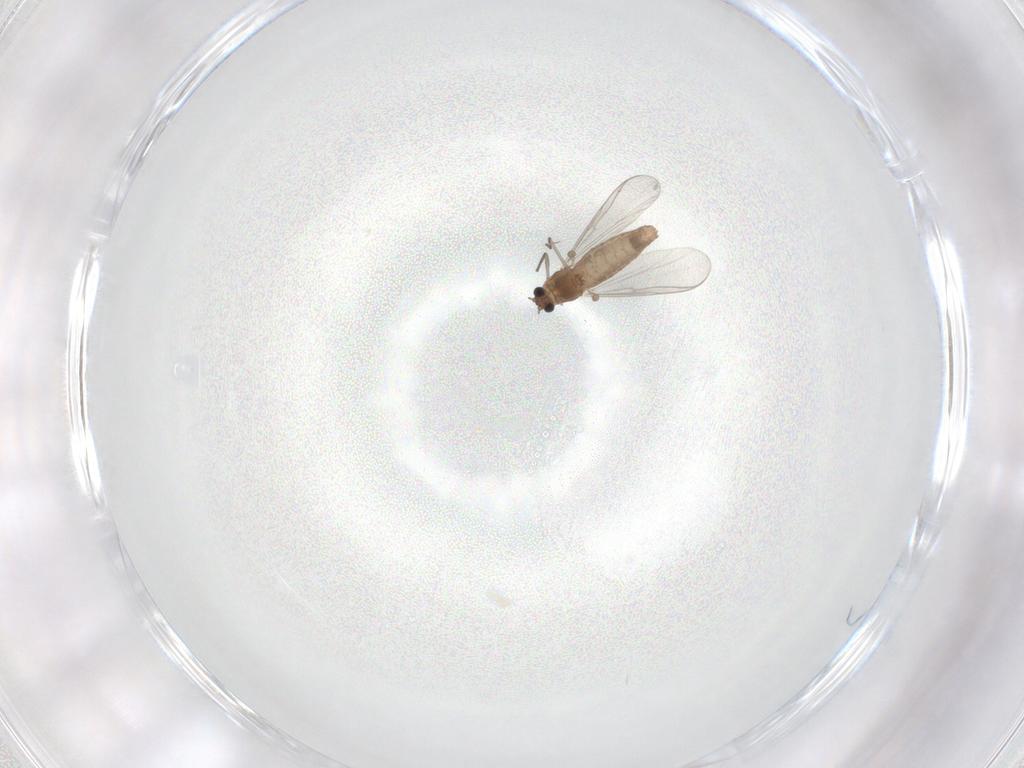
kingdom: Animalia
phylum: Arthropoda
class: Insecta
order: Diptera
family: Chironomidae
